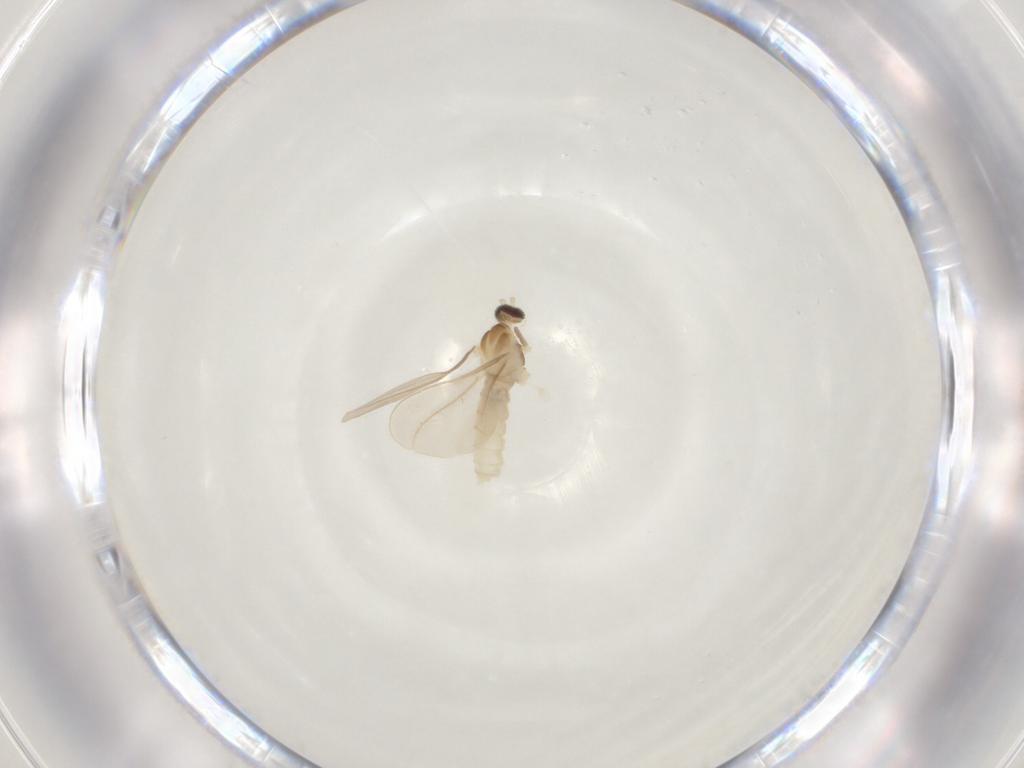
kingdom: Animalia
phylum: Arthropoda
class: Insecta
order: Diptera
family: Cecidomyiidae
